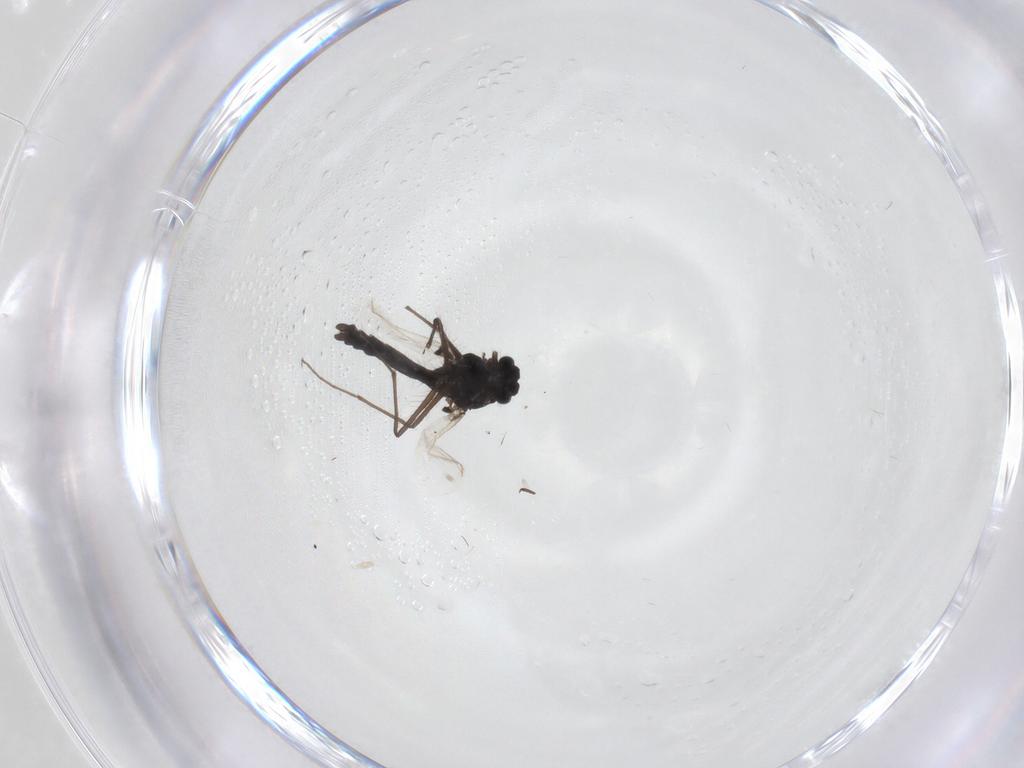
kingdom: Animalia
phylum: Arthropoda
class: Insecta
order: Diptera
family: Chironomidae
